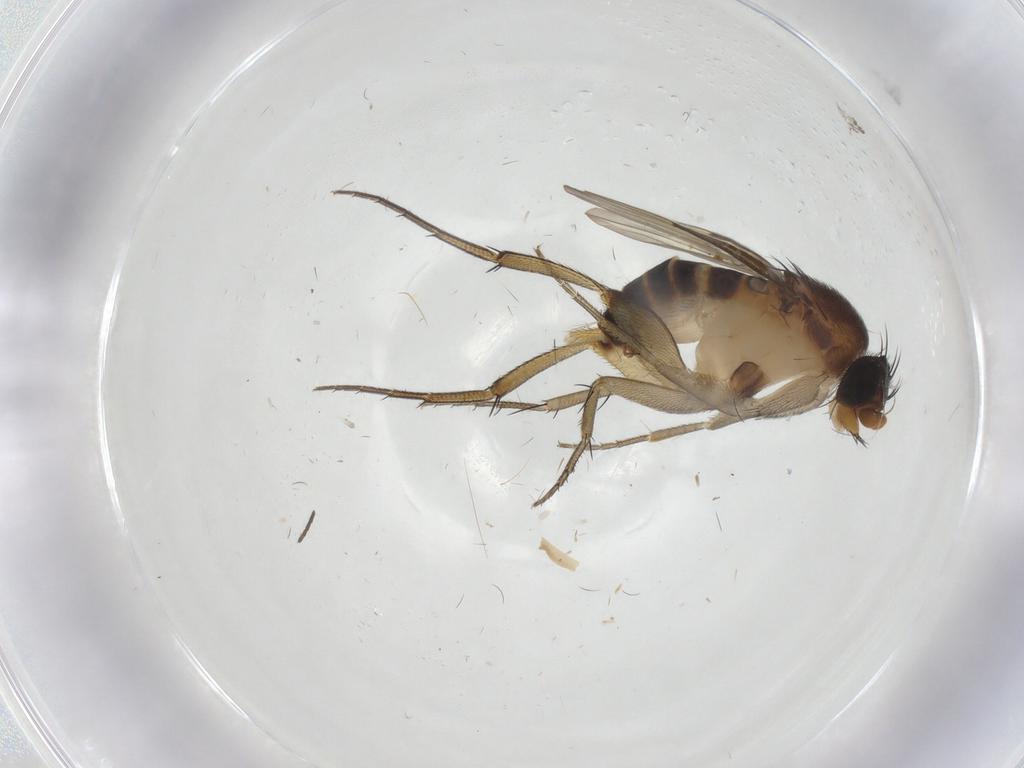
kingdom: Animalia
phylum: Arthropoda
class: Insecta
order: Diptera
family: Phoridae
